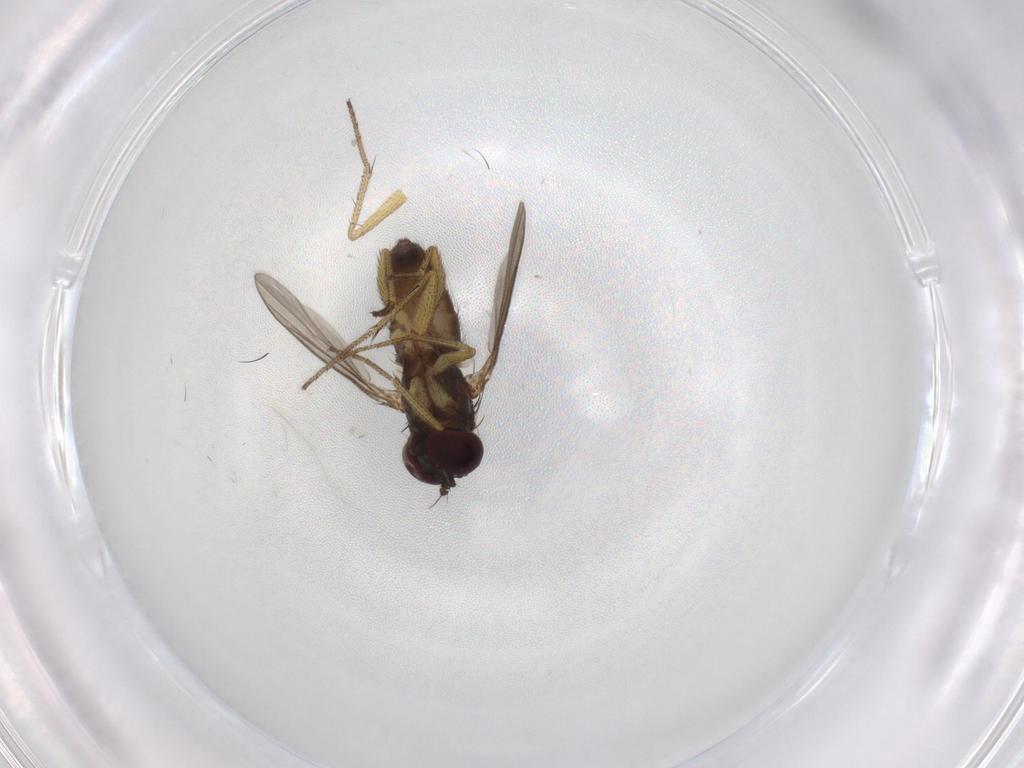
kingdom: Animalia
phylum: Arthropoda
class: Insecta
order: Diptera
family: Dolichopodidae
